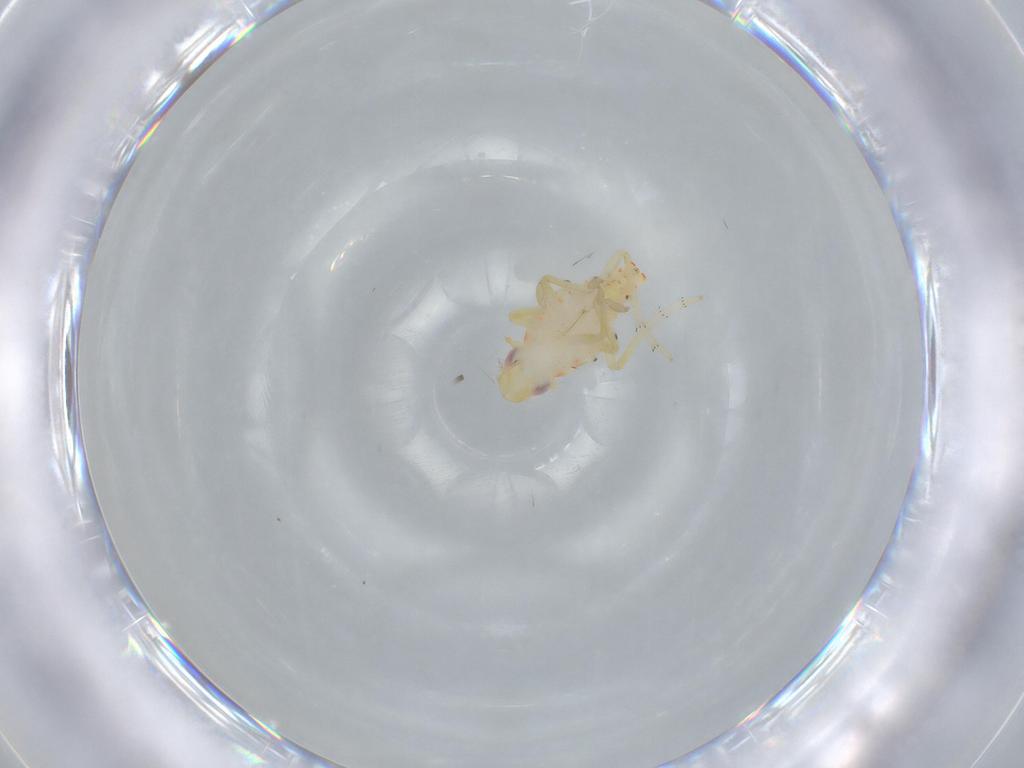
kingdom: Animalia
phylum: Arthropoda
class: Insecta
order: Hemiptera
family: Tropiduchidae
